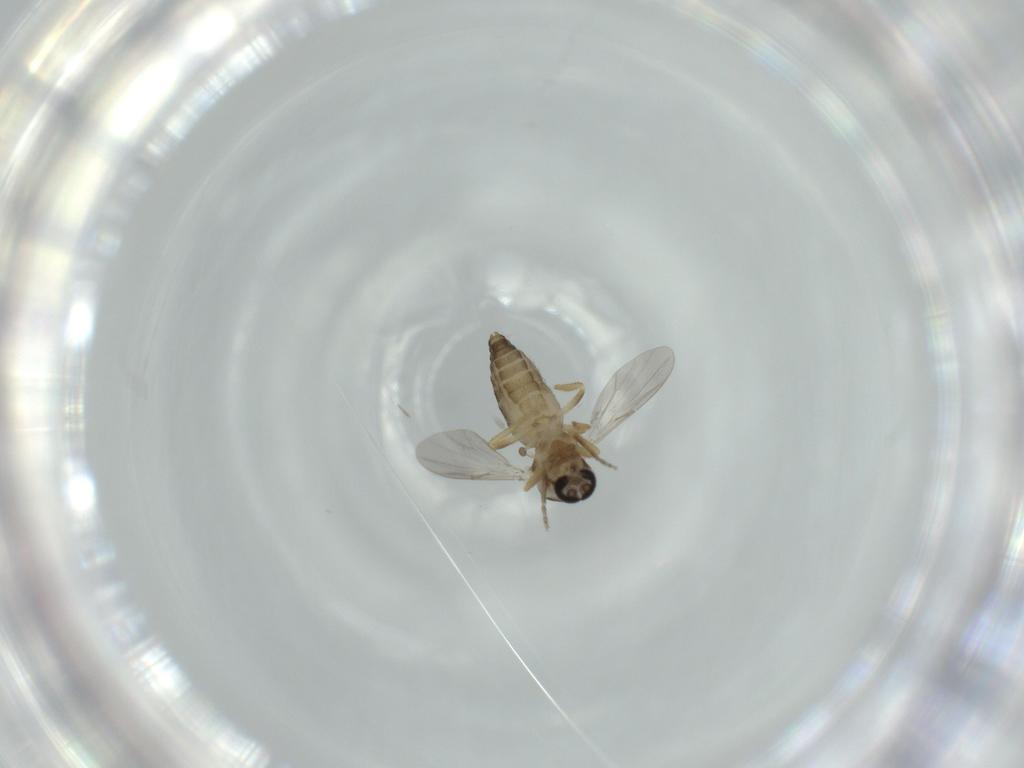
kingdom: Animalia
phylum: Arthropoda
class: Insecta
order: Diptera
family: Ceratopogonidae
